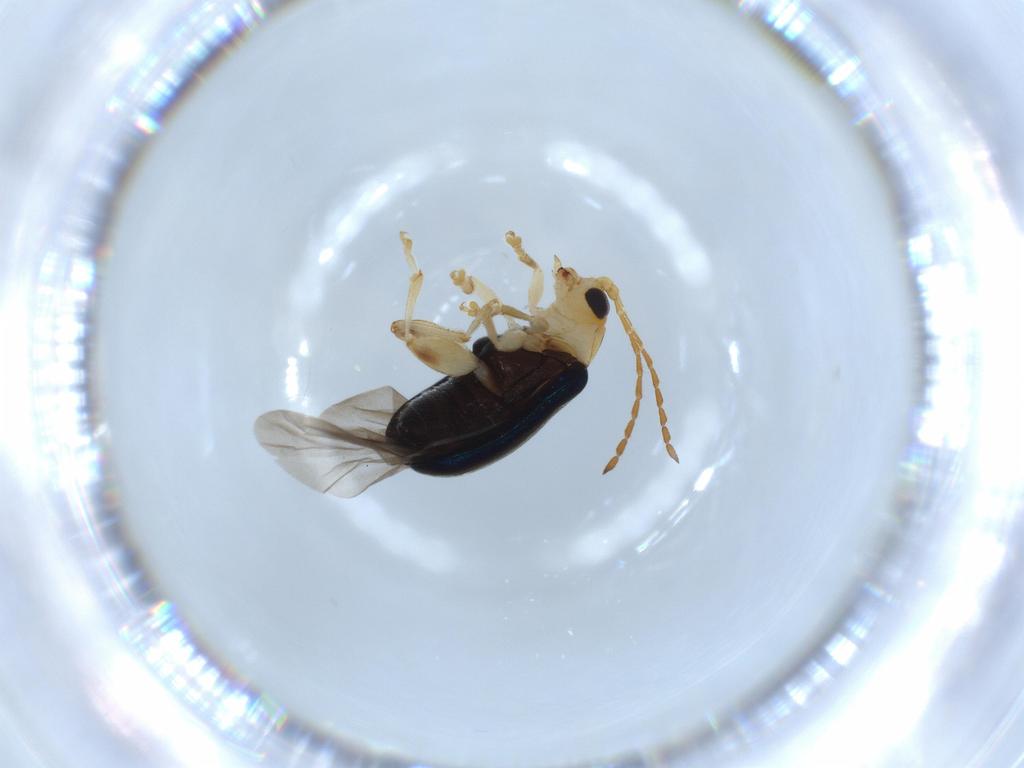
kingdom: Animalia
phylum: Arthropoda
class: Insecta
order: Coleoptera
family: Chrysomelidae
